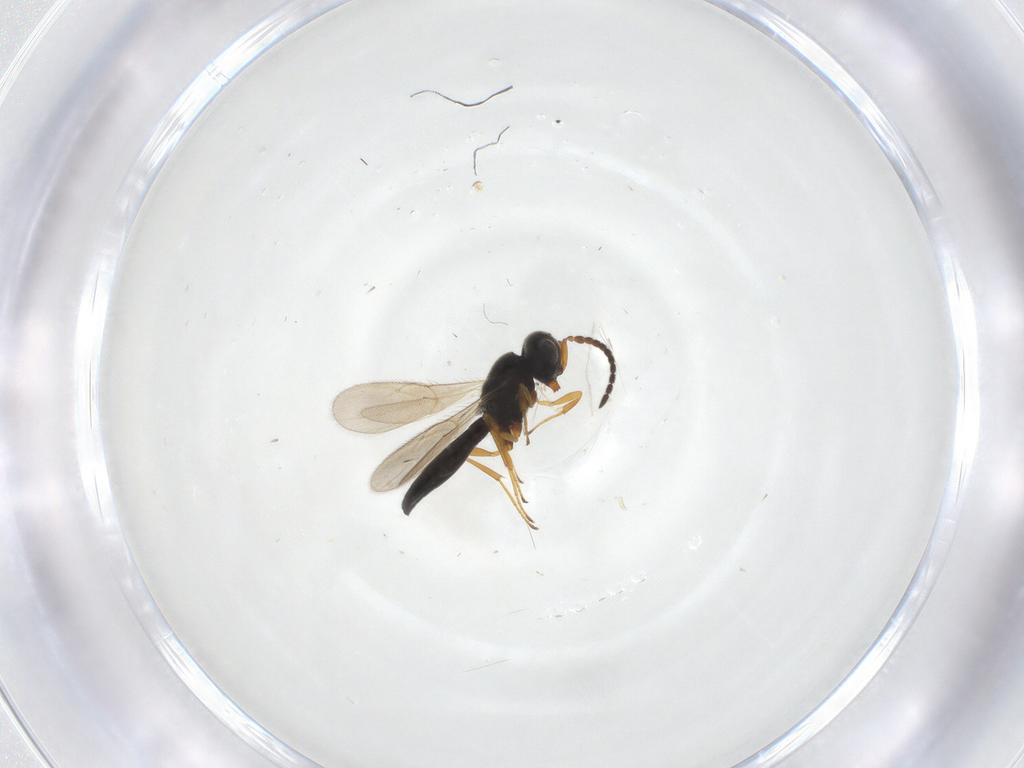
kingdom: Animalia
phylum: Arthropoda
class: Insecta
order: Hymenoptera
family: Scelionidae
